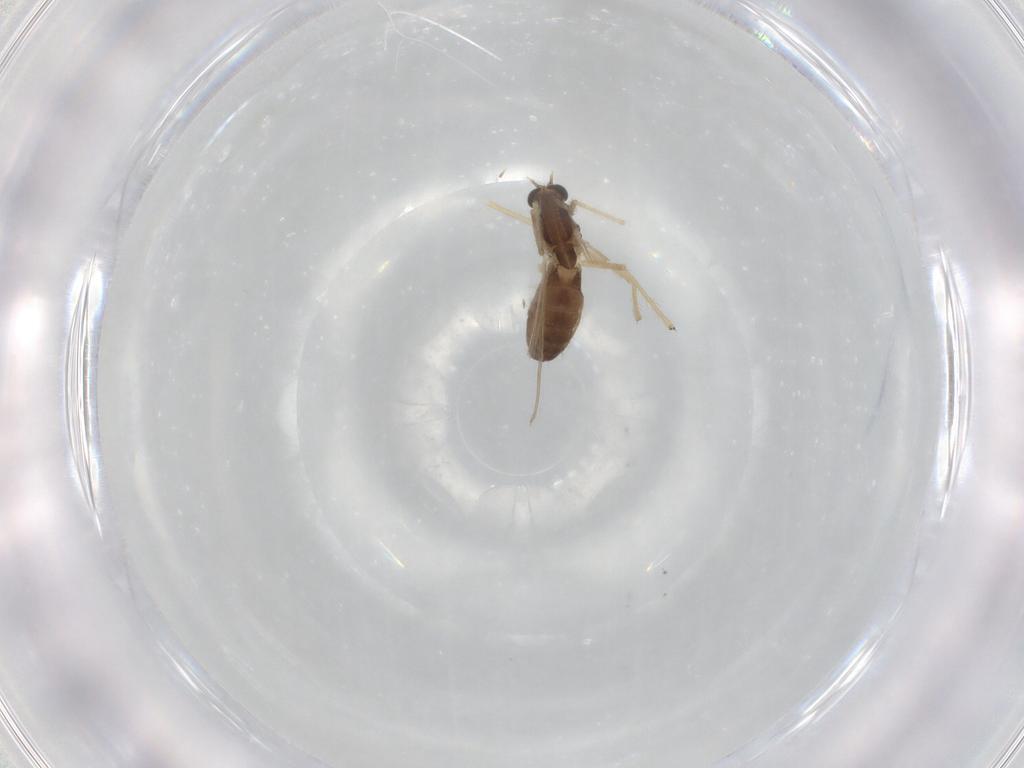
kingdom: Animalia
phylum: Arthropoda
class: Insecta
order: Diptera
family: Chironomidae
